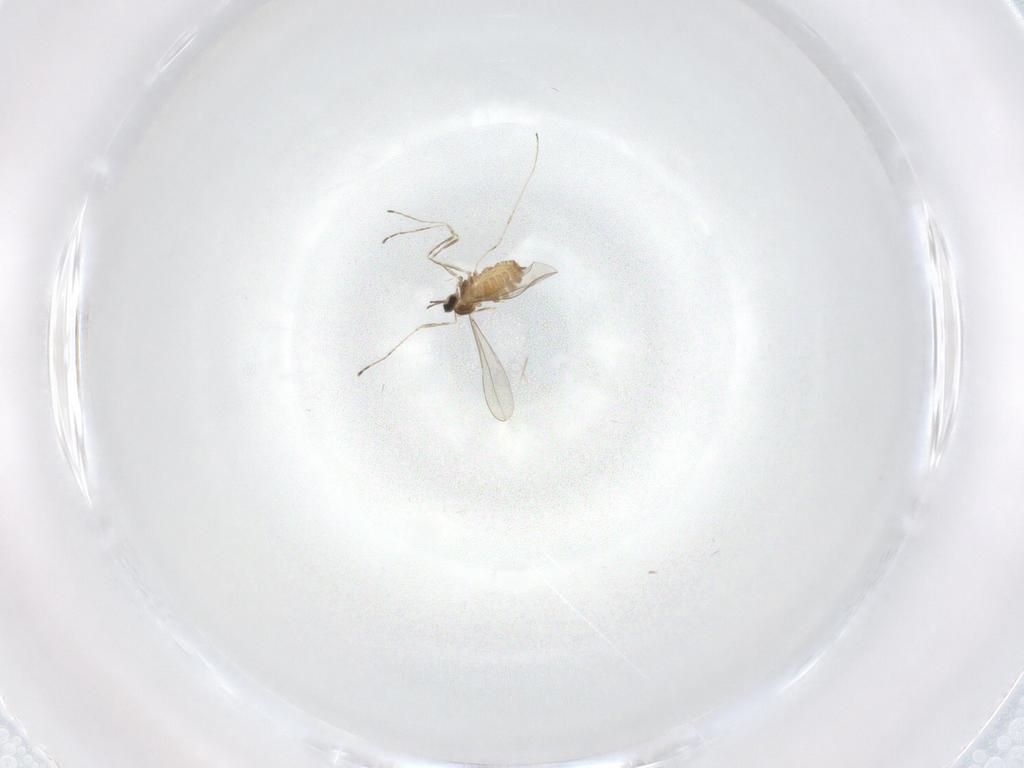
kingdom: Animalia
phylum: Arthropoda
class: Insecta
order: Diptera
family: Cecidomyiidae
